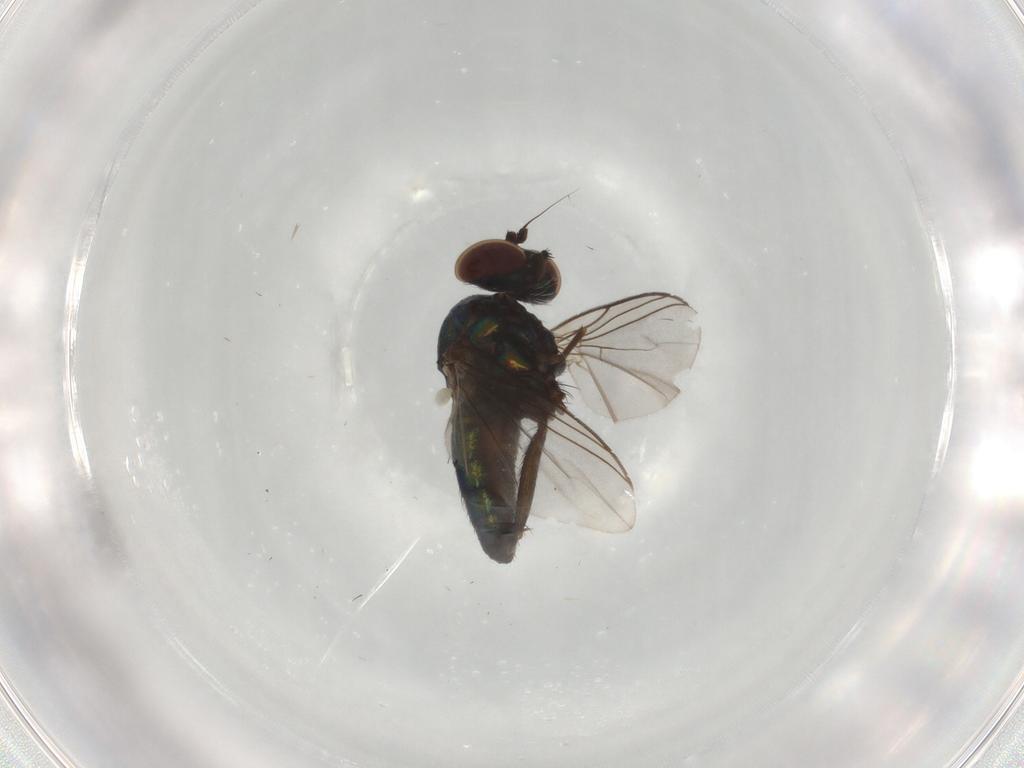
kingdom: Animalia
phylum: Arthropoda
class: Insecta
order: Diptera
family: Dolichopodidae
